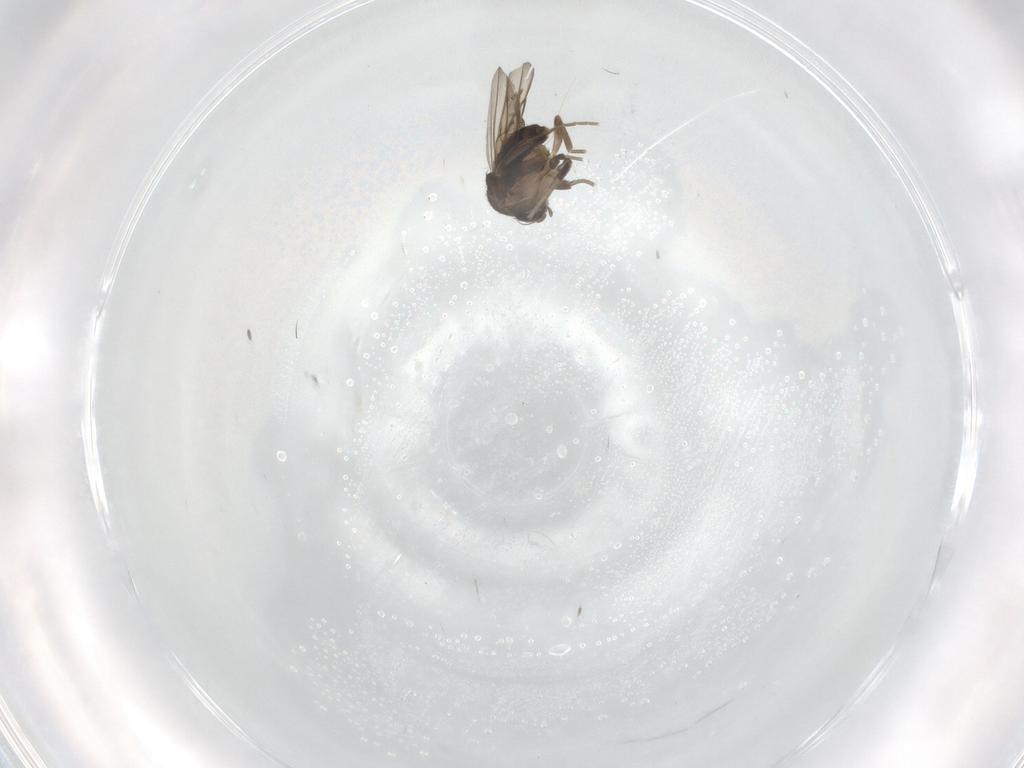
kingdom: Animalia
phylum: Arthropoda
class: Insecta
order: Diptera
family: Phoridae
